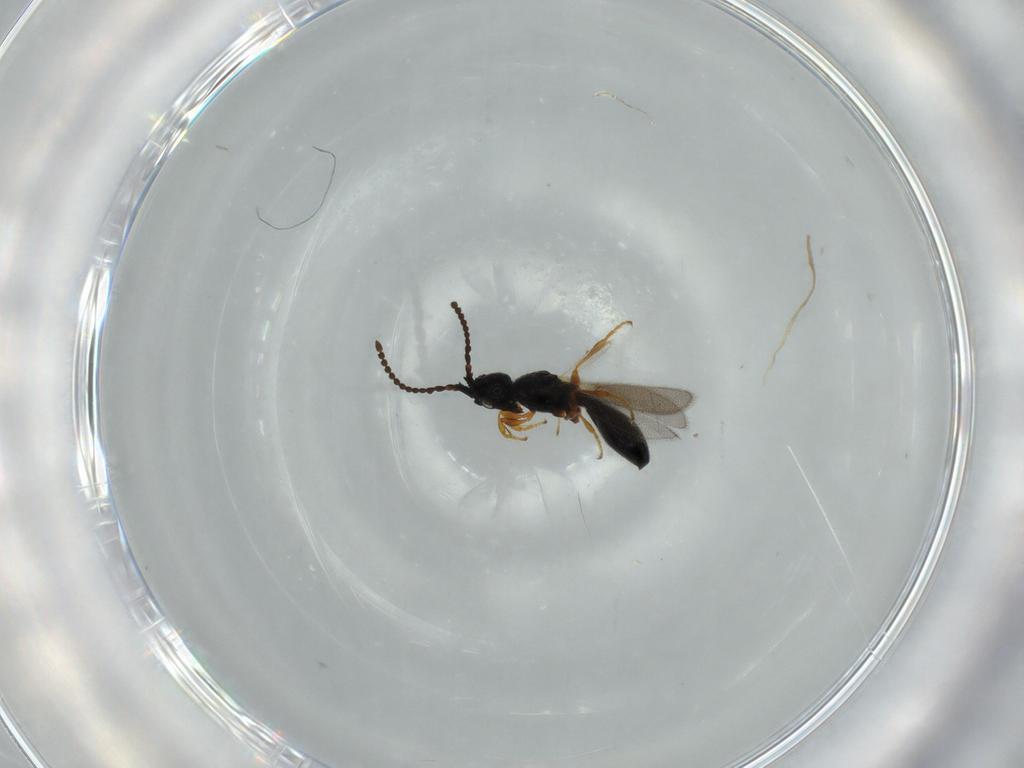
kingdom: Animalia
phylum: Arthropoda
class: Insecta
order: Hymenoptera
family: Diapriidae
